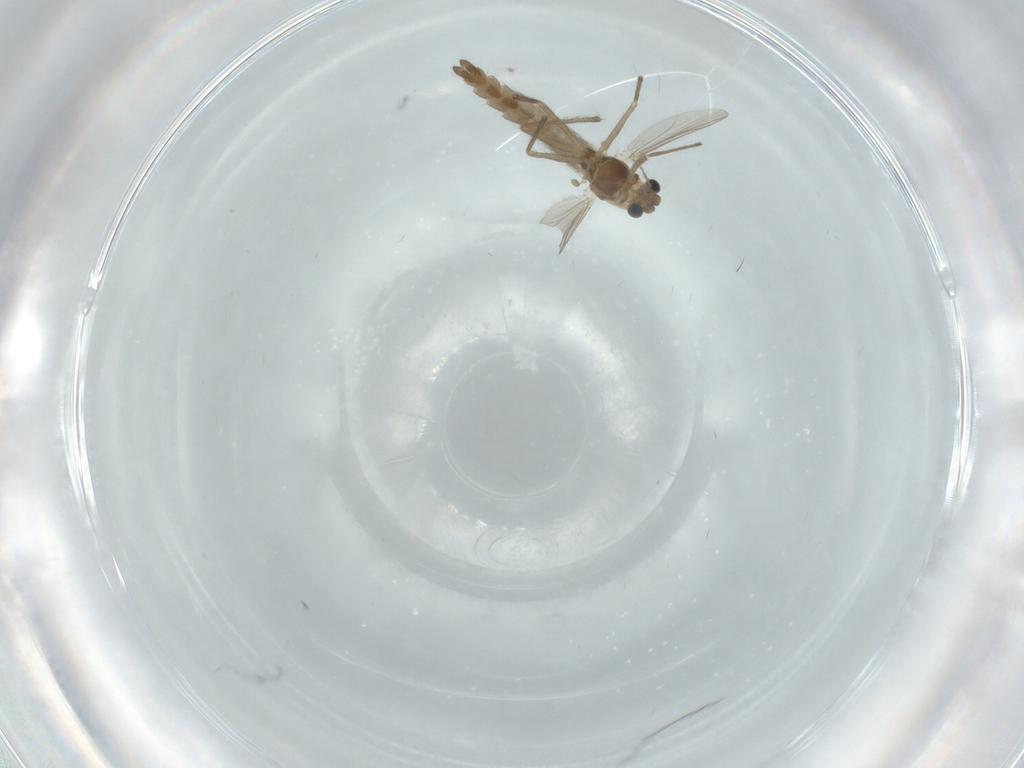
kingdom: Animalia
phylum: Arthropoda
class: Insecta
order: Diptera
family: Chironomidae
